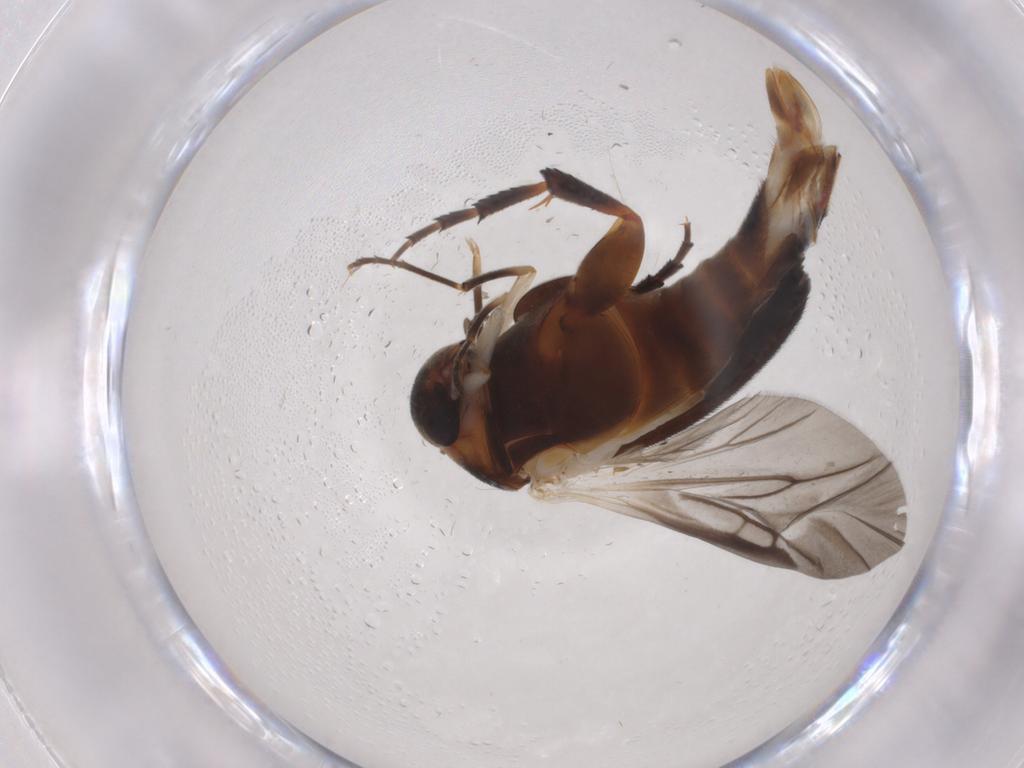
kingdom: Animalia
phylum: Arthropoda
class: Insecta
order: Coleoptera
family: Mordellidae
